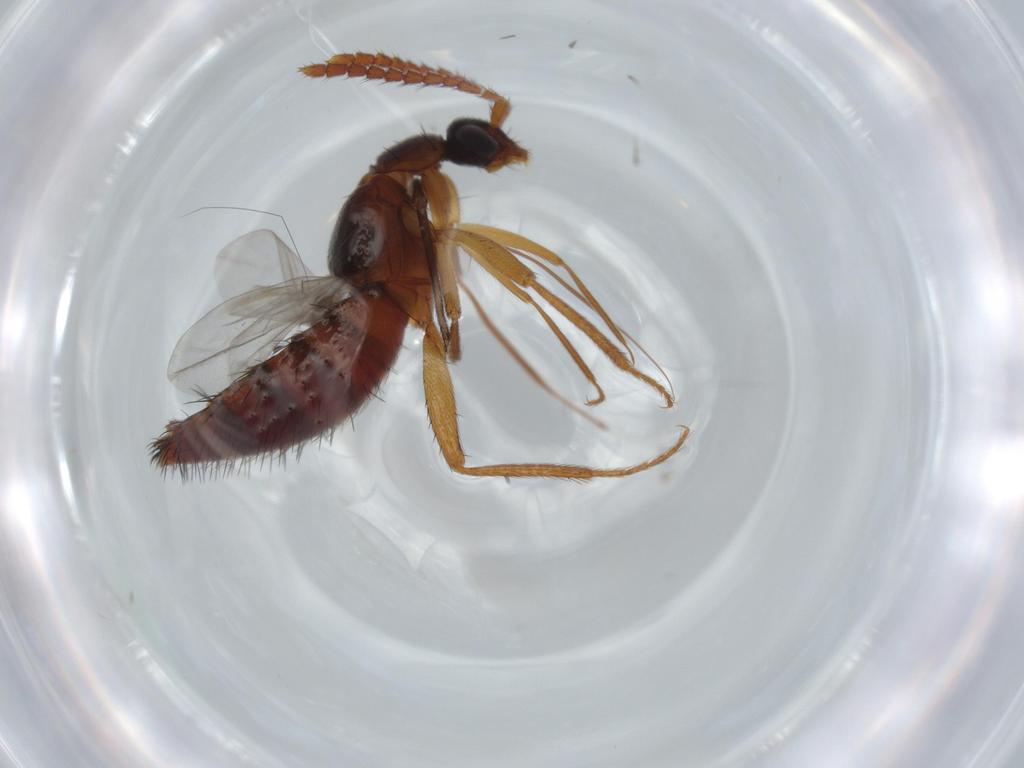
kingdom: Animalia
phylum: Arthropoda
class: Insecta
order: Coleoptera
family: Staphylinidae
